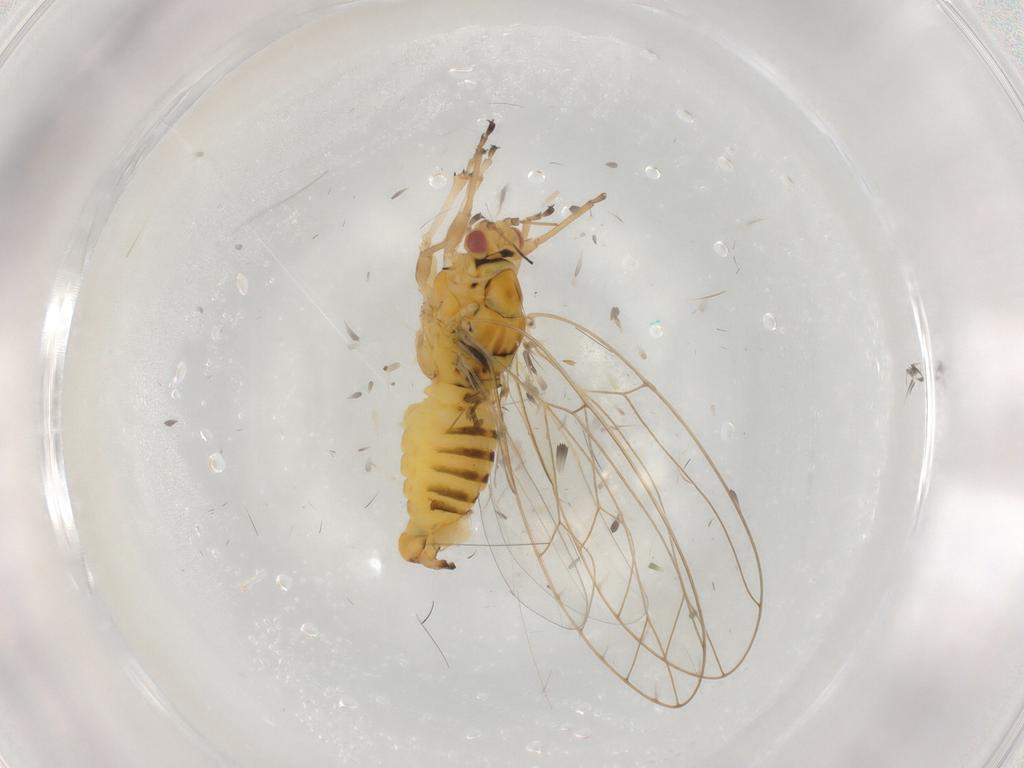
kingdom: Animalia
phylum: Arthropoda
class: Insecta
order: Hemiptera
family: Triozidae
